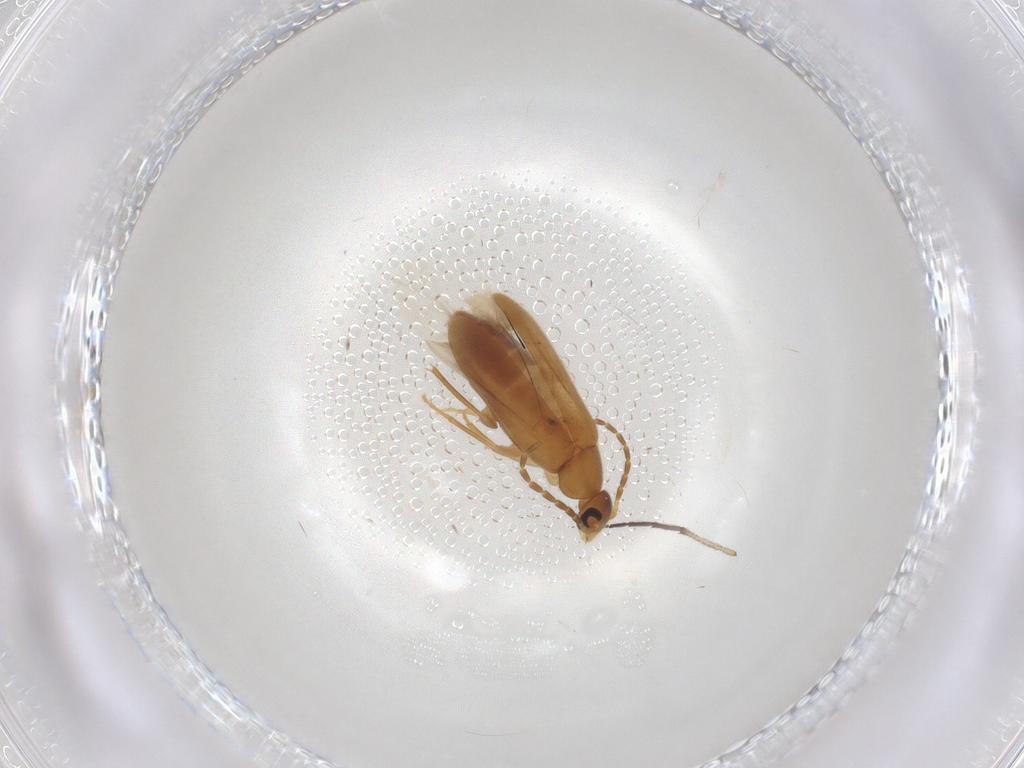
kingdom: Animalia
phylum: Arthropoda
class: Insecta
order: Coleoptera
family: Scraptiidae
